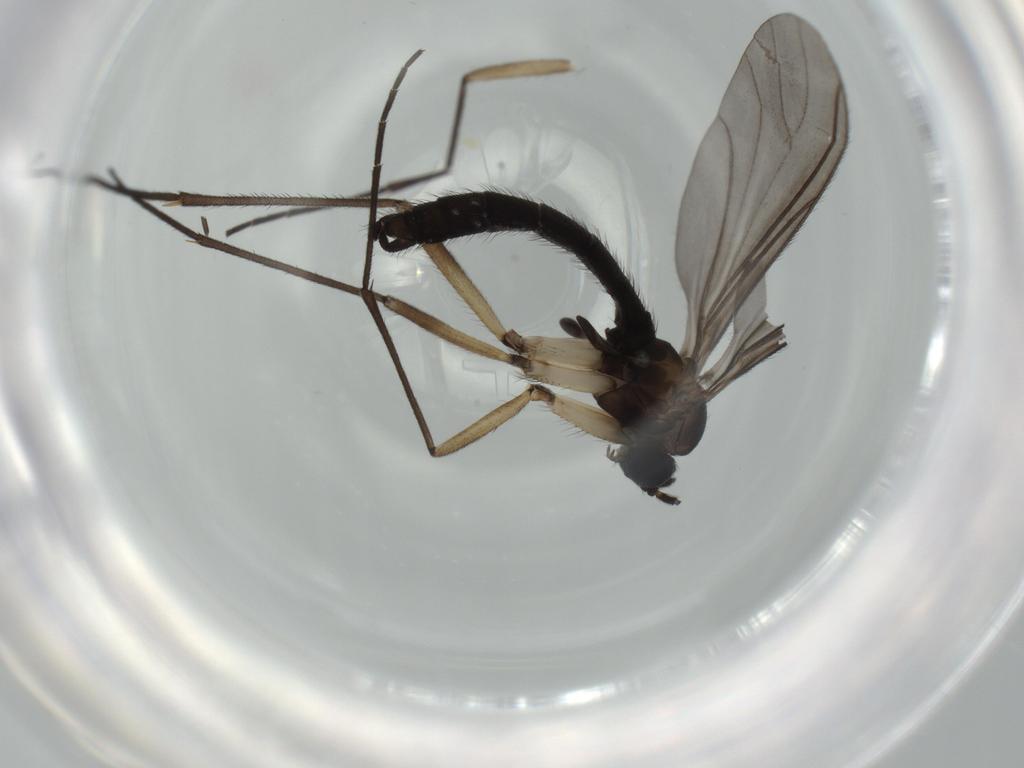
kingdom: Animalia
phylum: Arthropoda
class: Insecta
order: Diptera
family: Sciaridae
